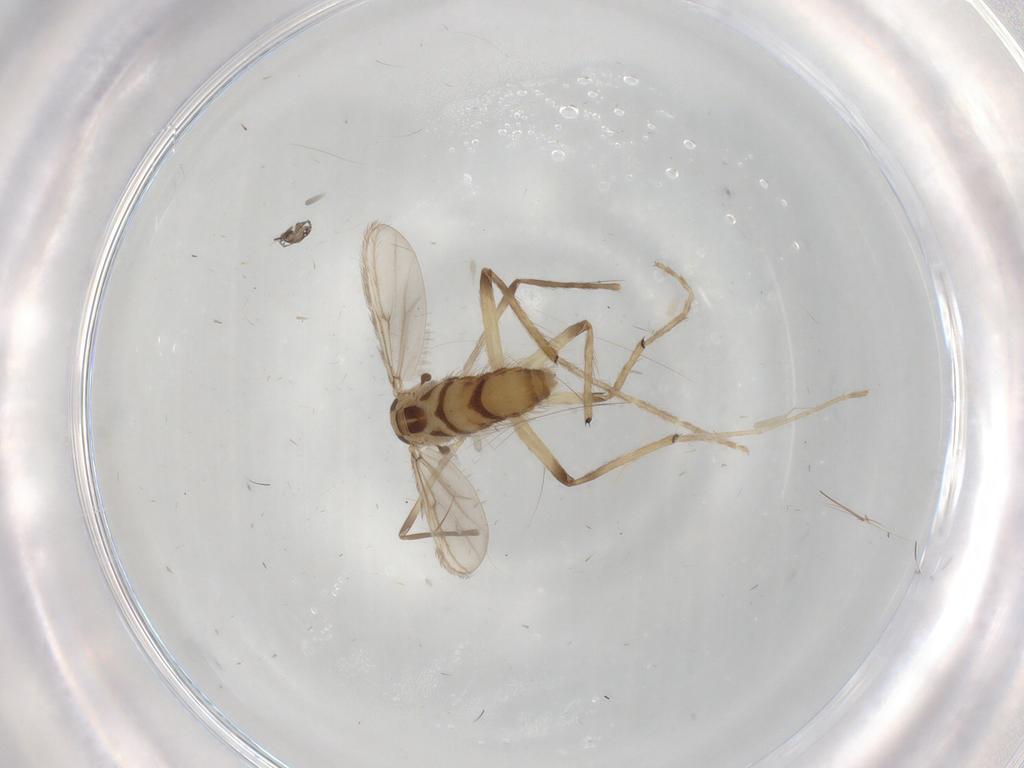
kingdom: Animalia
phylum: Arthropoda
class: Insecta
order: Diptera
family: Chironomidae
